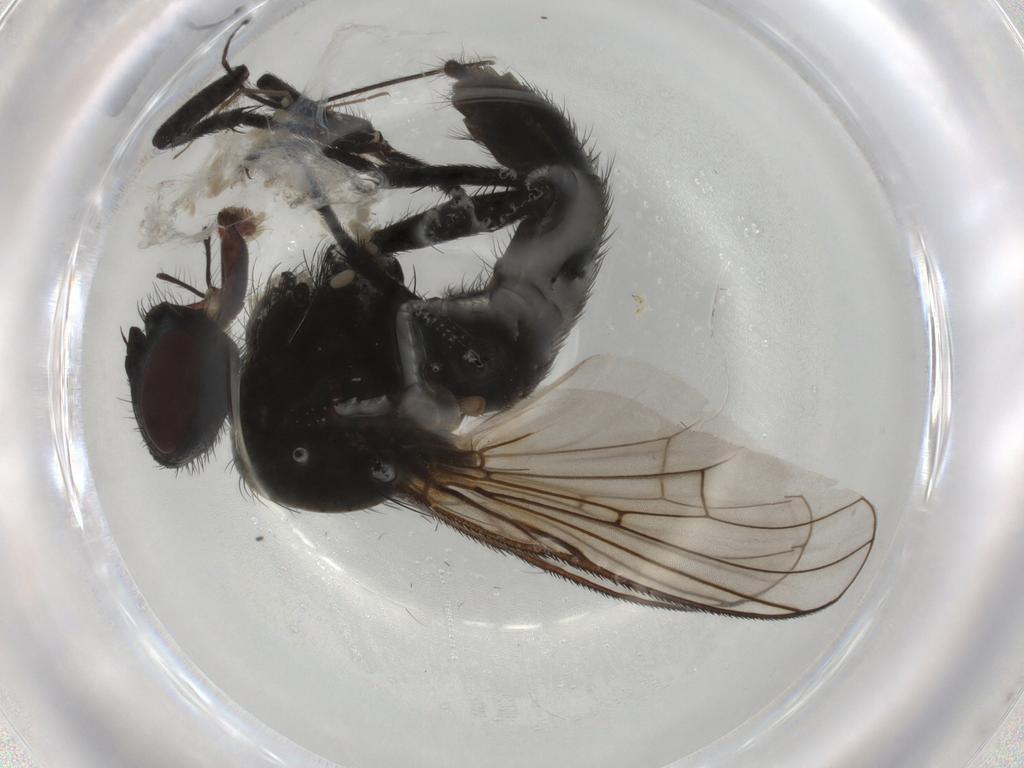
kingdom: Animalia
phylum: Arthropoda
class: Insecta
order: Diptera
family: Muscidae
